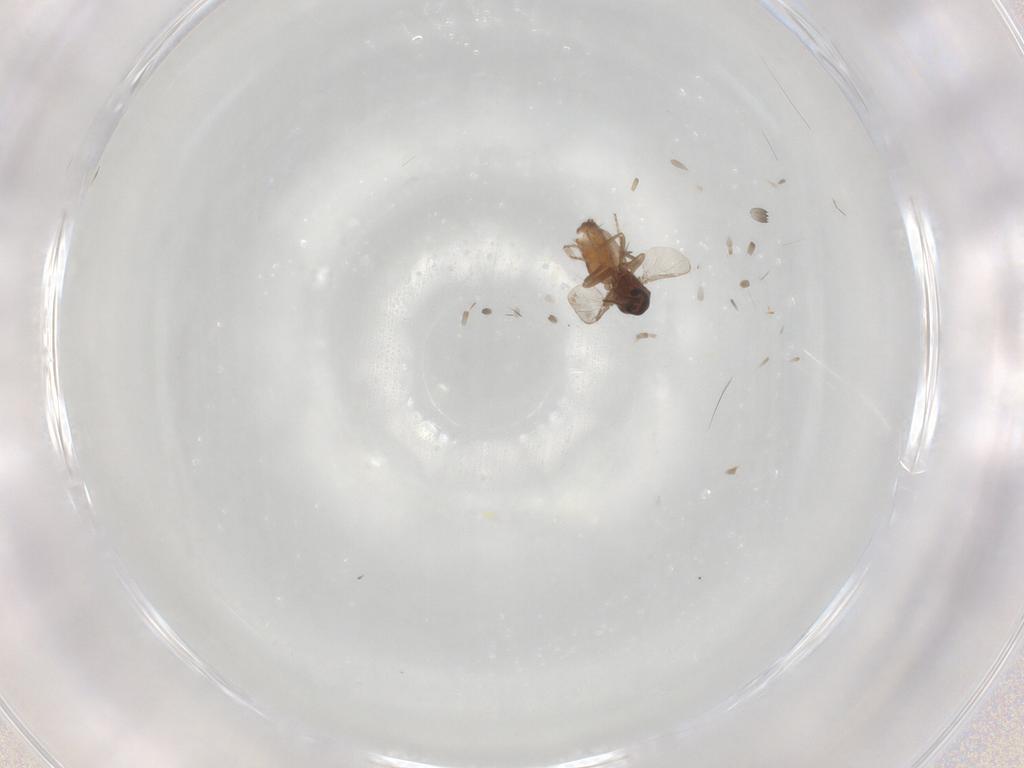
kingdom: Animalia
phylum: Arthropoda
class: Insecta
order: Diptera
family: Ceratopogonidae
